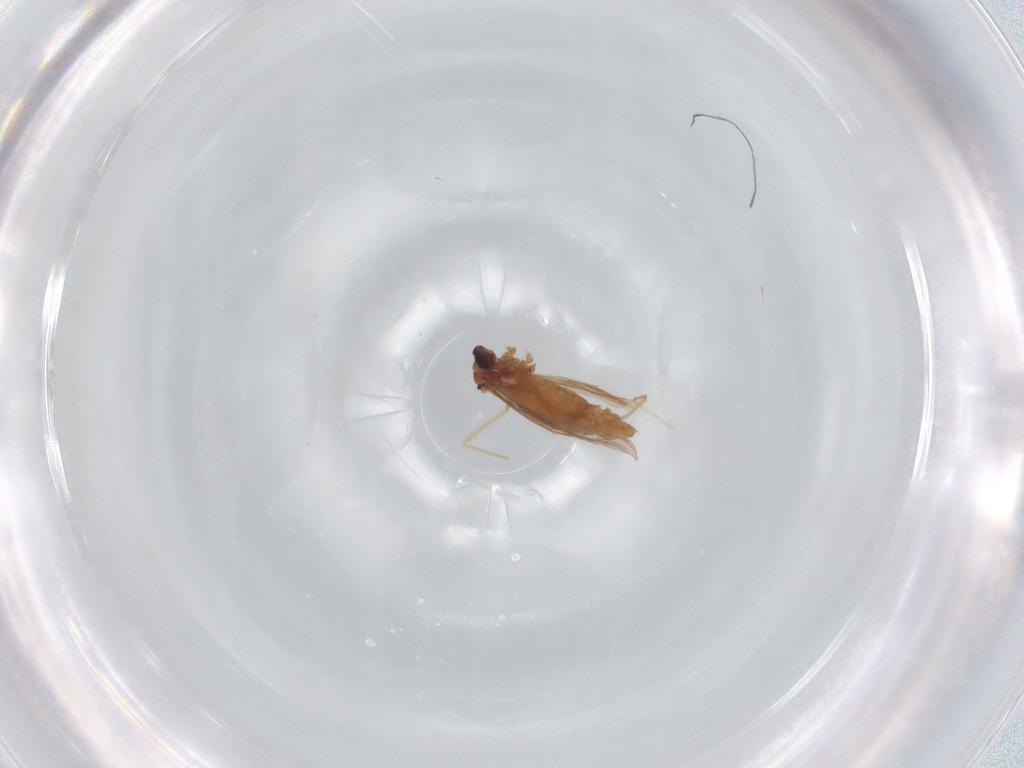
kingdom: Animalia
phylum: Arthropoda
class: Insecta
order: Diptera
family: Cecidomyiidae
